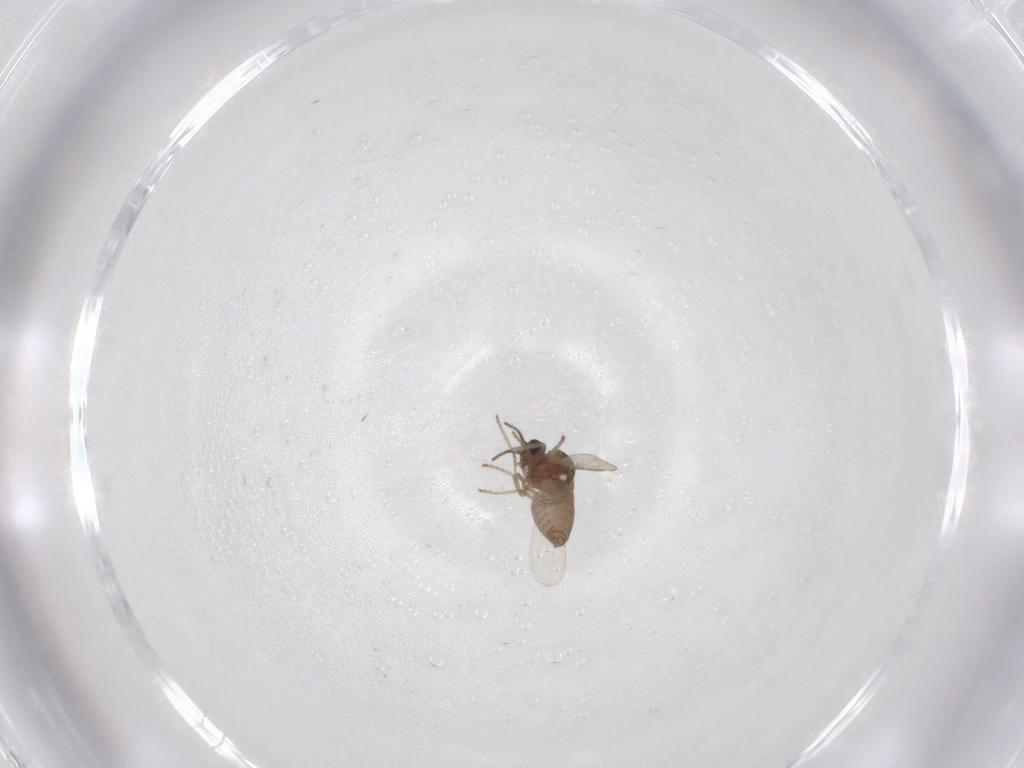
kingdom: Animalia
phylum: Arthropoda
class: Insecta
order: Diptera
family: Ceratopogonidae
